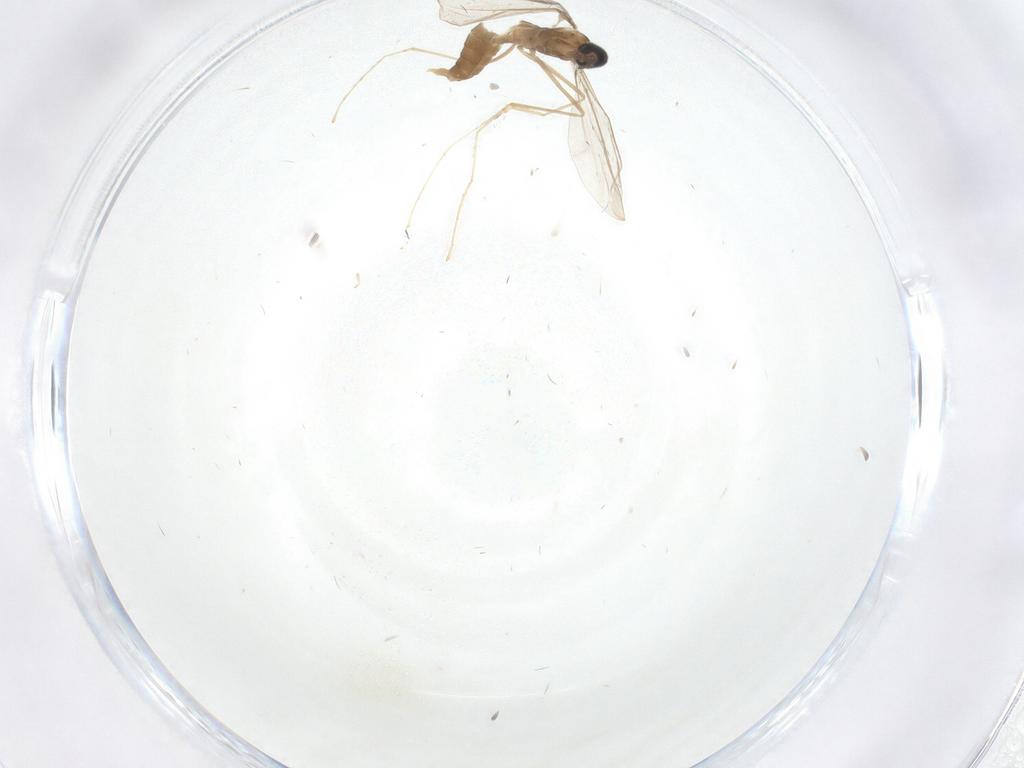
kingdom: Animalia
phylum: Arthropoda
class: Insecta
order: Diptera
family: Cecidomyiidae
